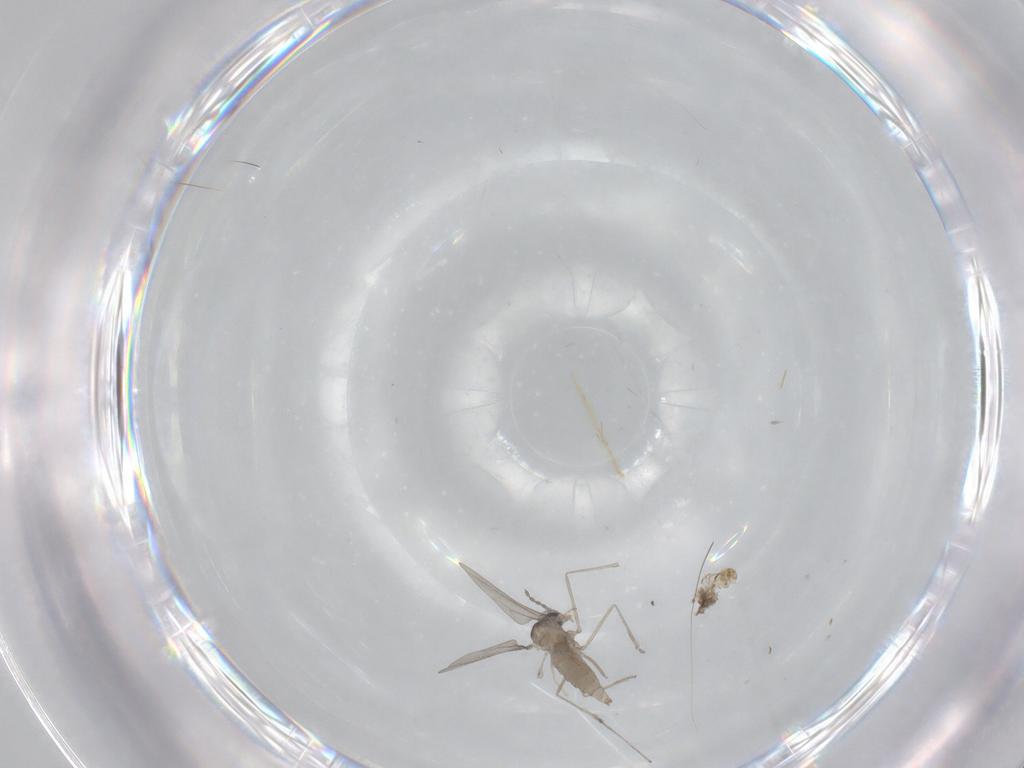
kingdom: Animalia
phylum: Arthropoda
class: Insecta
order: Diptera
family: Cecidomyiidae
